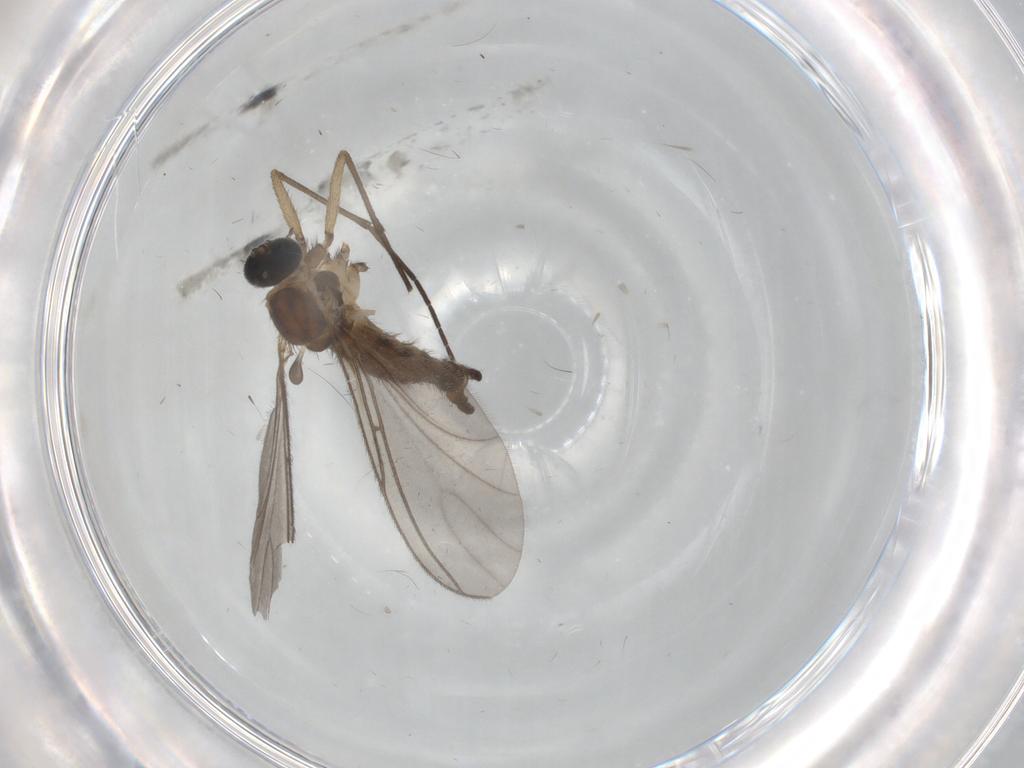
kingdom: Animalia
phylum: Arthropoda
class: Insecta
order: Diptera
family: Sciaridae
